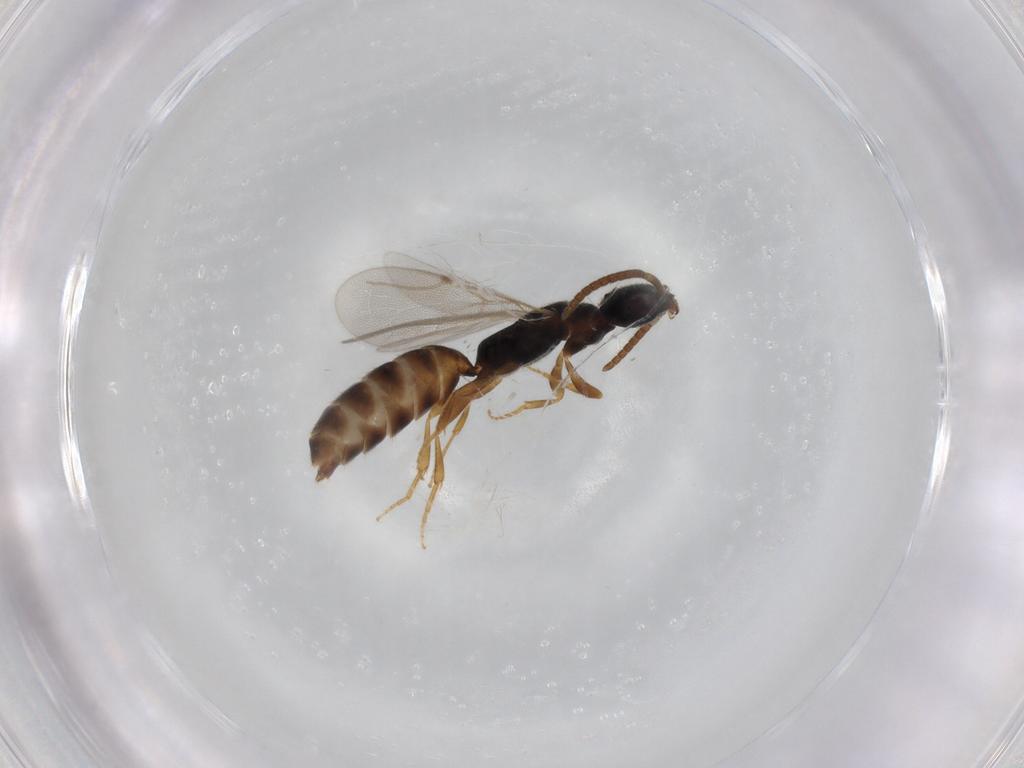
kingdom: Animalia
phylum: Arthropoda
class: Insecta
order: Hymenoptera
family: Bethylidae
